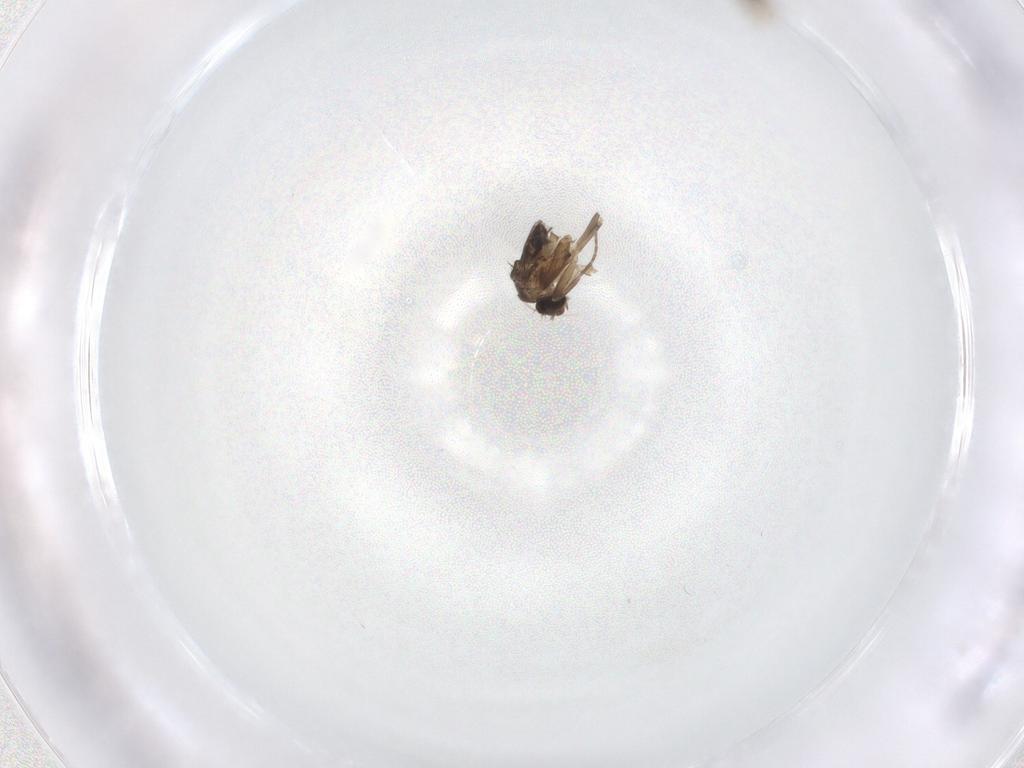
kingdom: Animalia
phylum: Arthropoda
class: Insecta
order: Diptera
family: Phoridae
